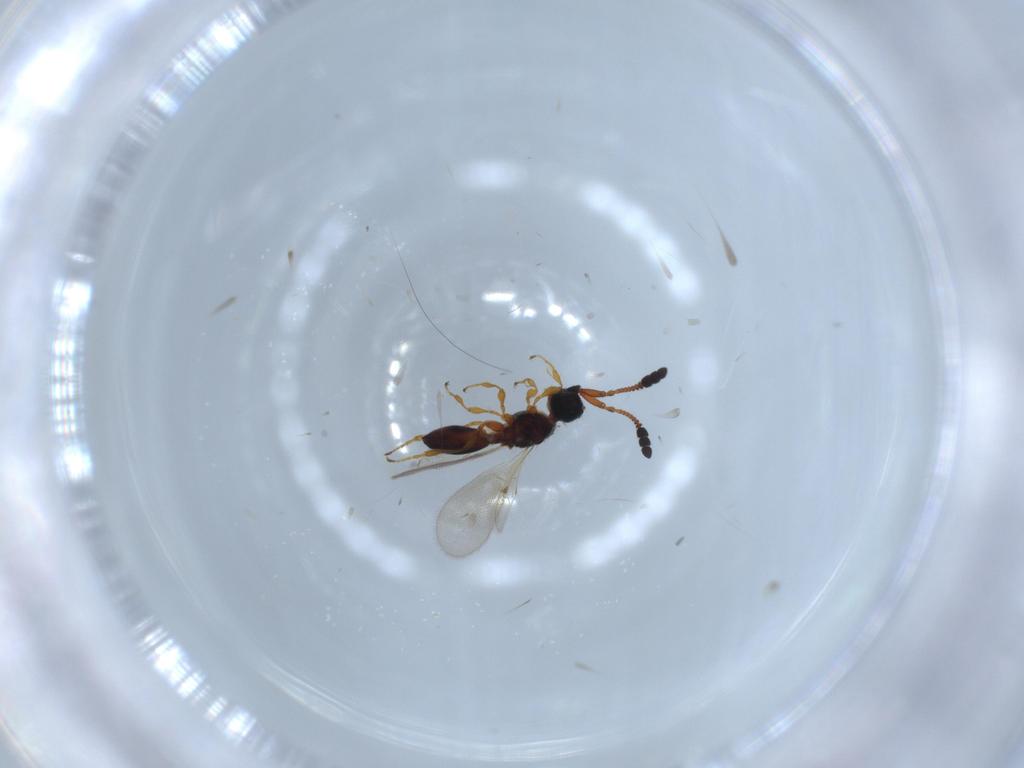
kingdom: Animalia
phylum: Arthropoda
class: Insecta
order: Hymenoptera
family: Diapriidae
